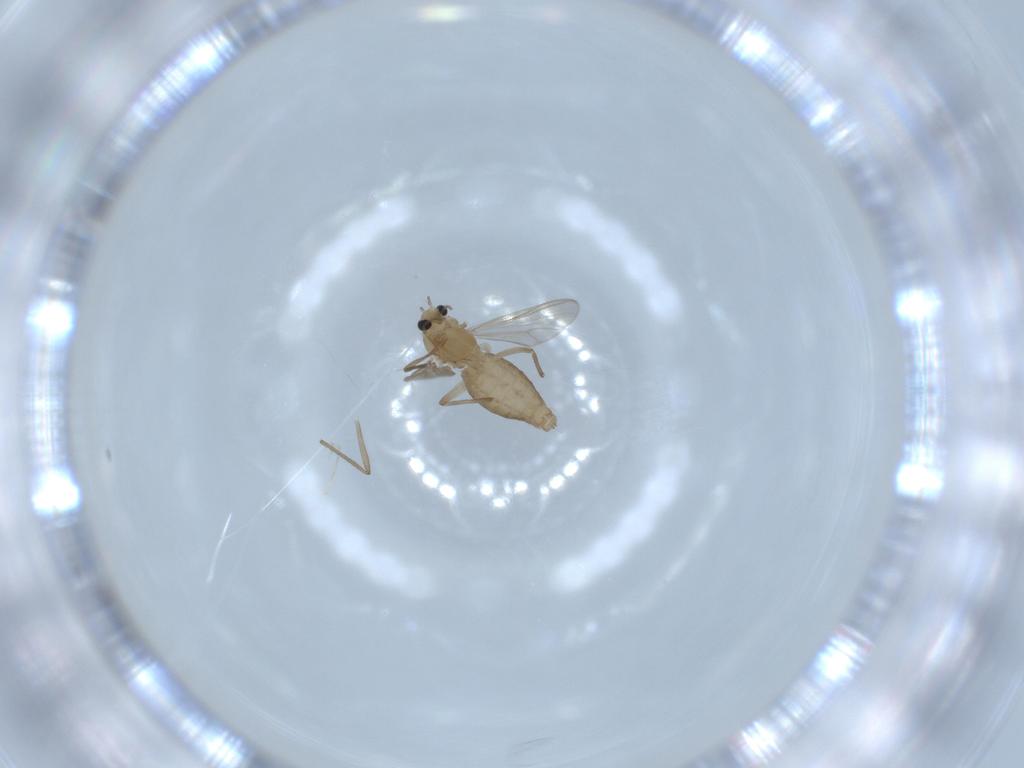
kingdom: Animalia
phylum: Arthropoda
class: Insecta
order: Diptera
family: Chironomidae
